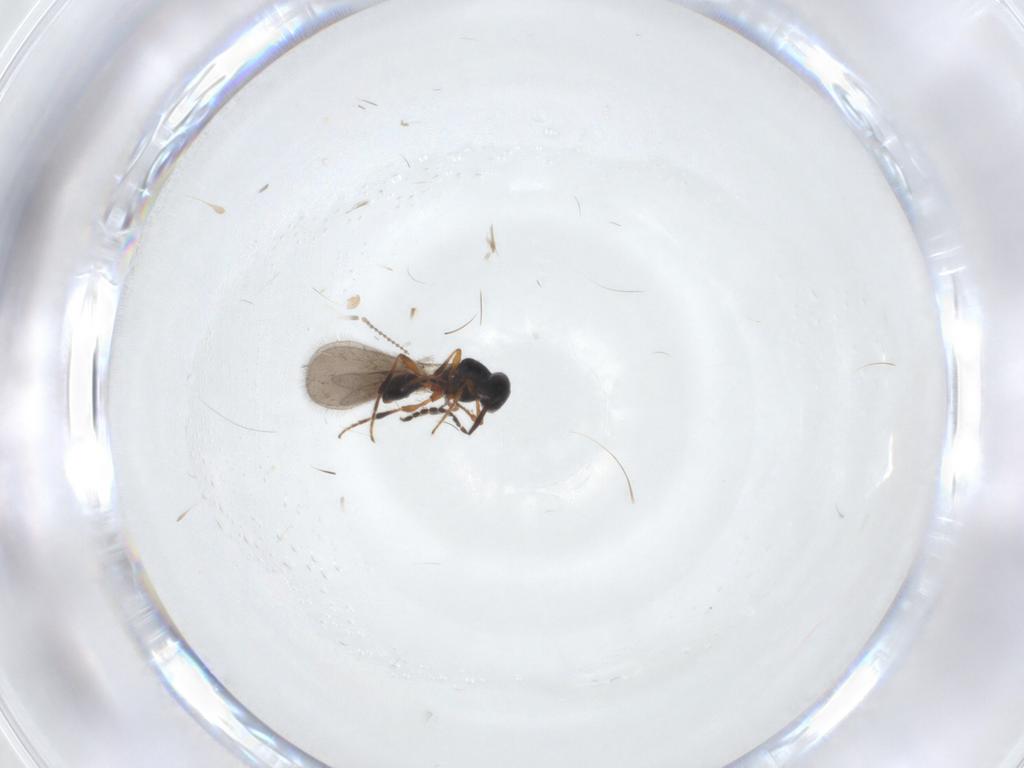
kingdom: Animalia
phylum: Arthropoda
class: Insecta
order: Hymenoptera
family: Platygastridae
